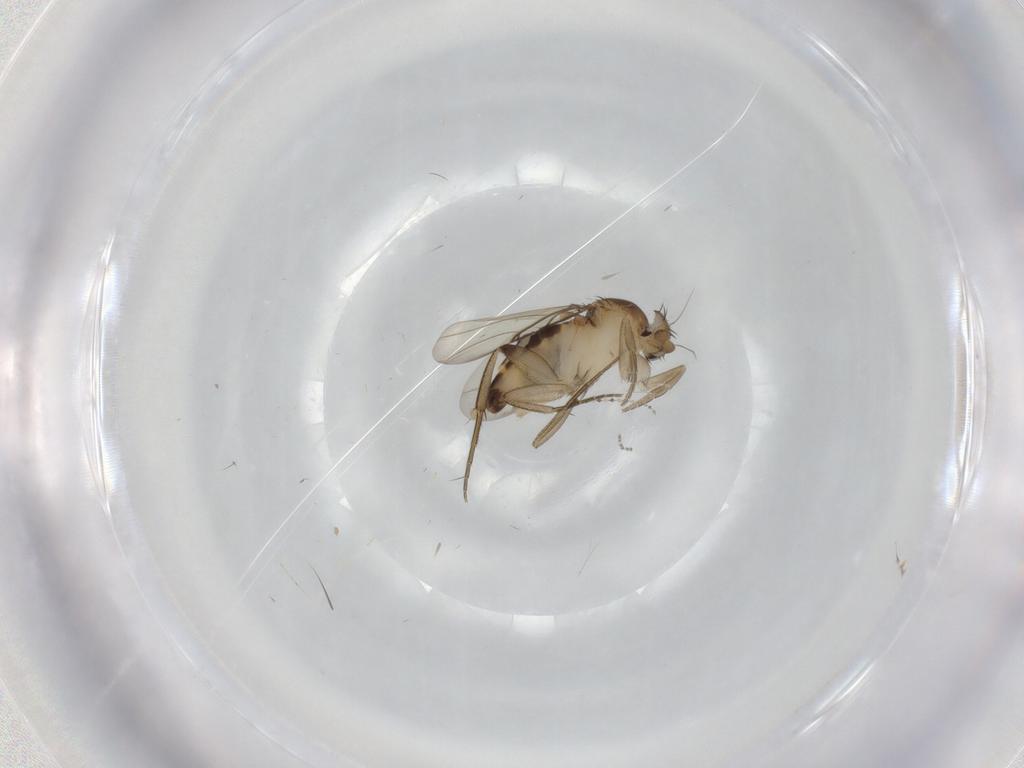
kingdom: Animalia
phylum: Arthropoda
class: Insecta
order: Diptera
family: Cecidomyiidae
